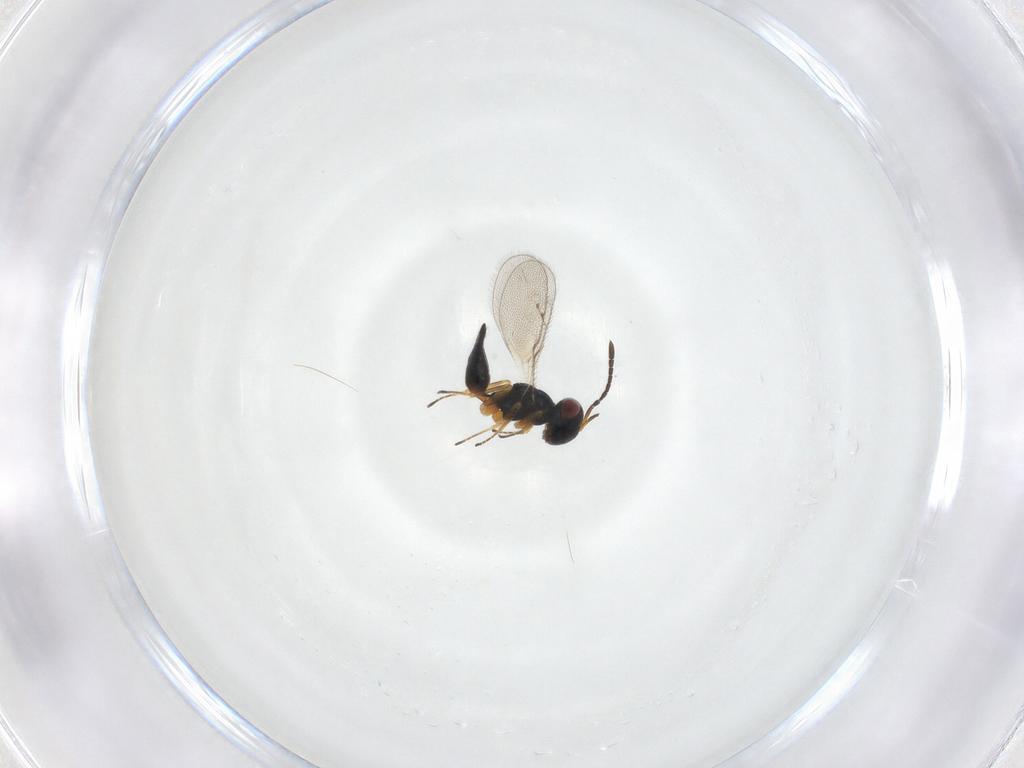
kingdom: Animalia
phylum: Arthropoda
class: Insecta
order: Hymenoptera
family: Pteromalidae
